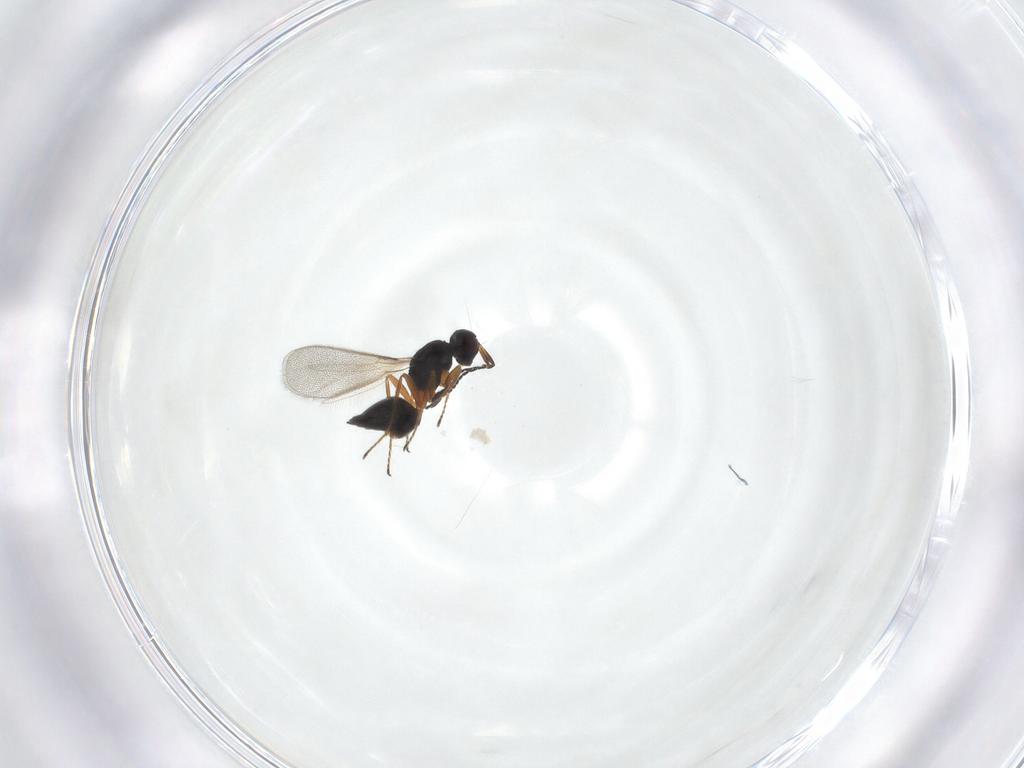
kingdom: Animalia
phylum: Arthropoda
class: Insecta
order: Hymenoptera
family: Mymaridae
